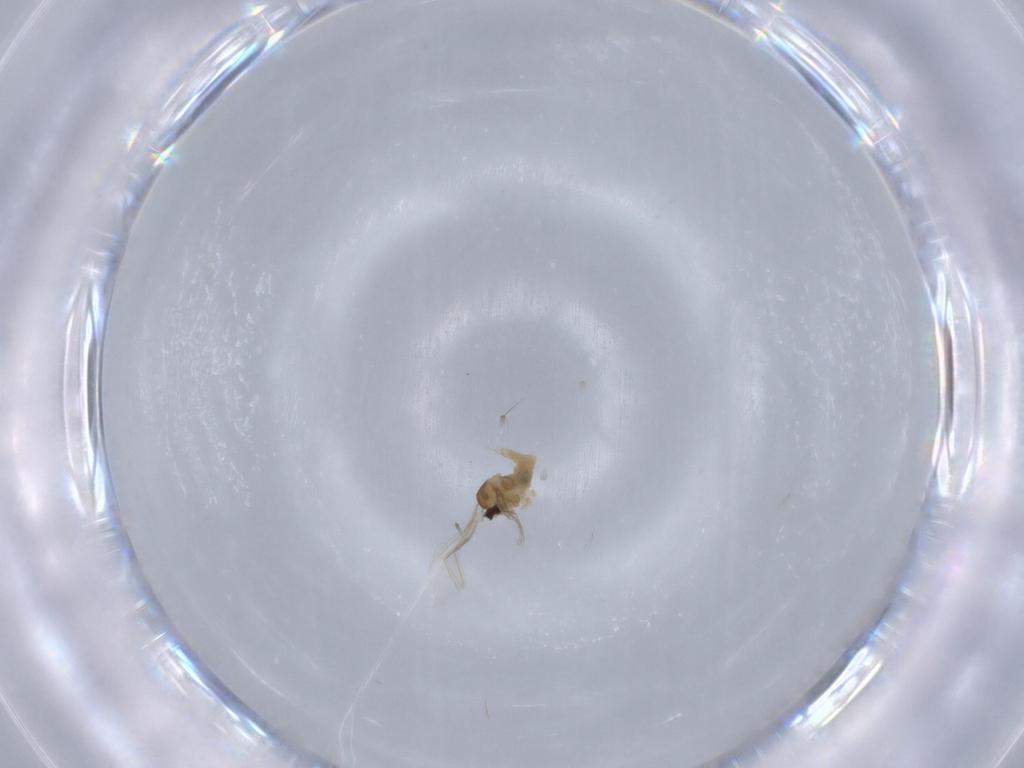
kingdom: Animalia
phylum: Arthropoda
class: Insecta
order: Diptera
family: Cecidomyiidae
